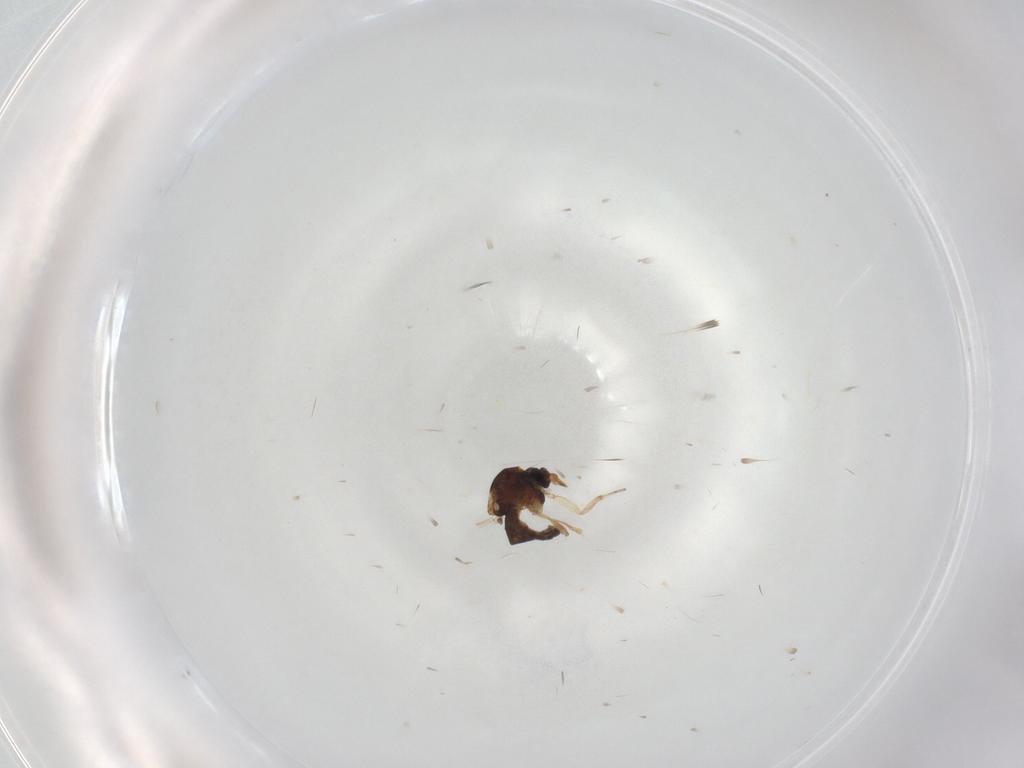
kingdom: Animalia
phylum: Arthropoda
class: Insecta
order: Diptera
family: Ceratopogonidae
